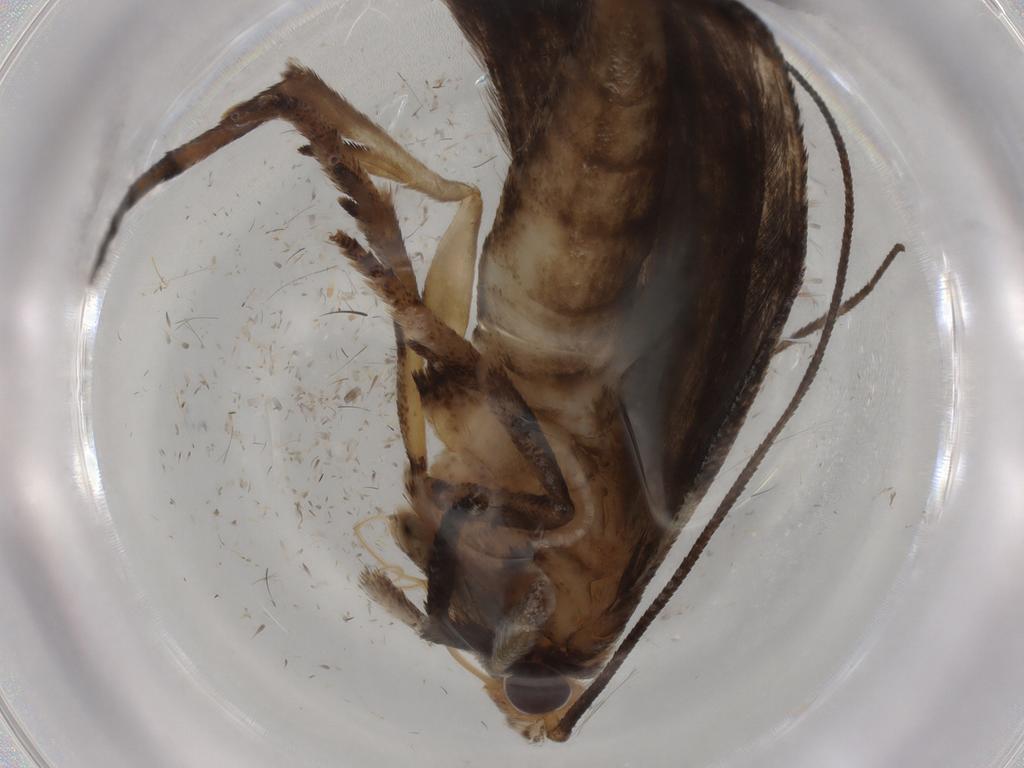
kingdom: Animalia
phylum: Arthropoda
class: Insecta
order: Lepidoptera
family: Yponomeutidae
